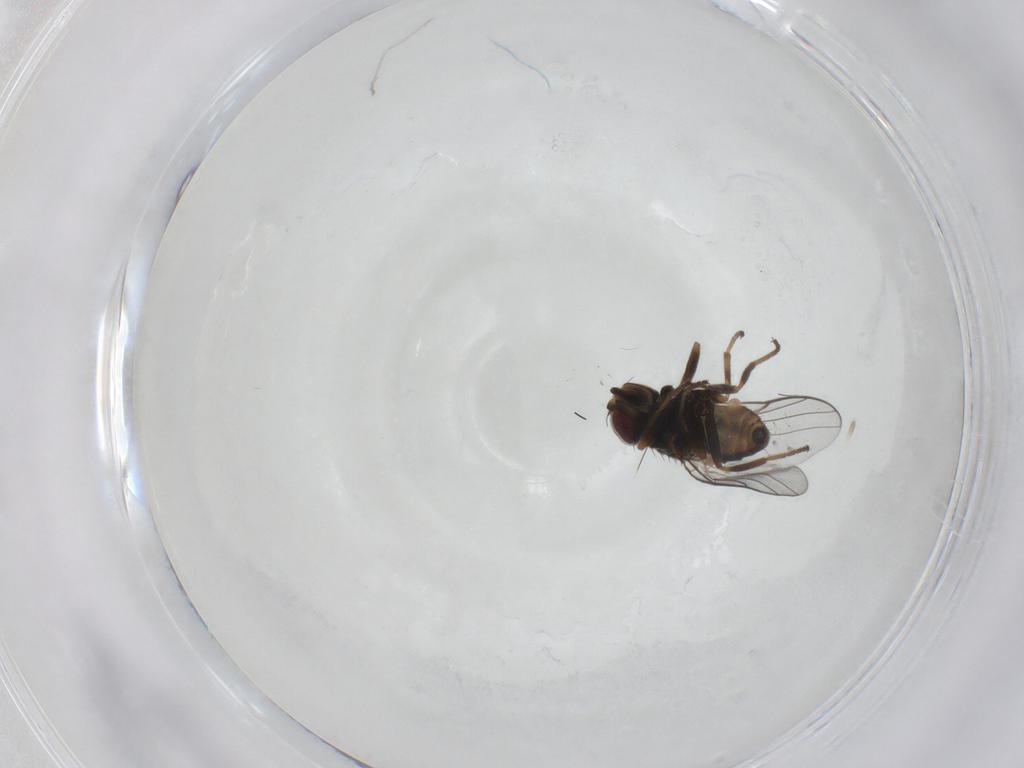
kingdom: Animalia
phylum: Arthropoda
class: Insecta
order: Diptera
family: Chloropidae
